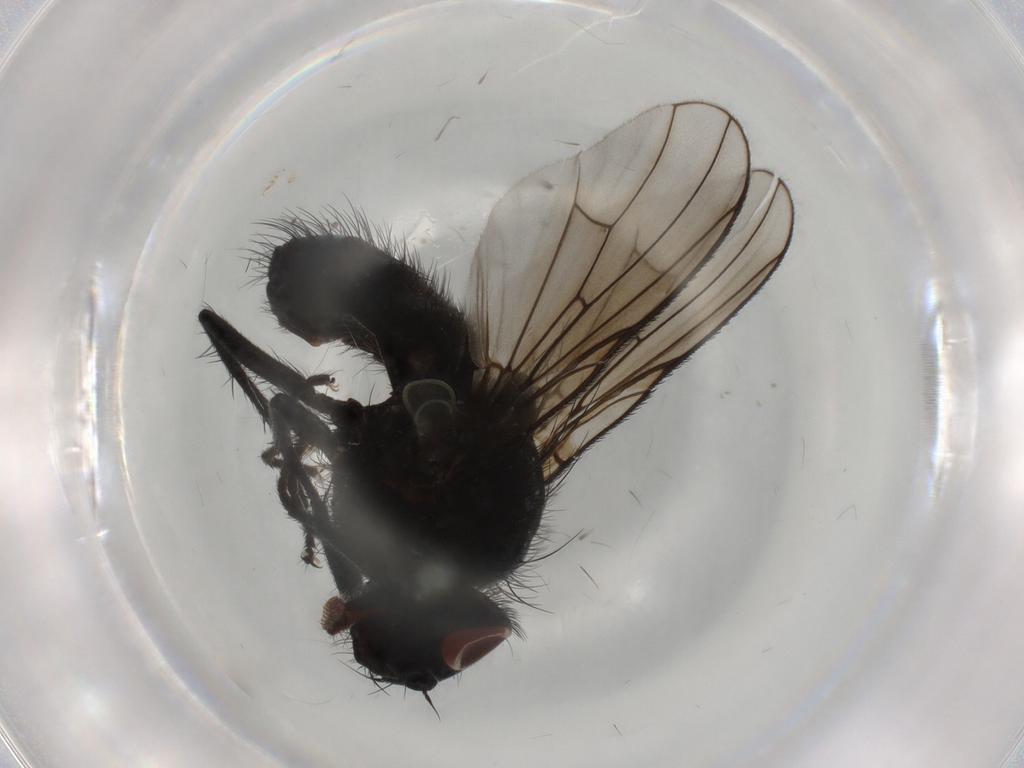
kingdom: Animalia
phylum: Arthropoda
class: Insecta
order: Diptera
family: Muscidae
